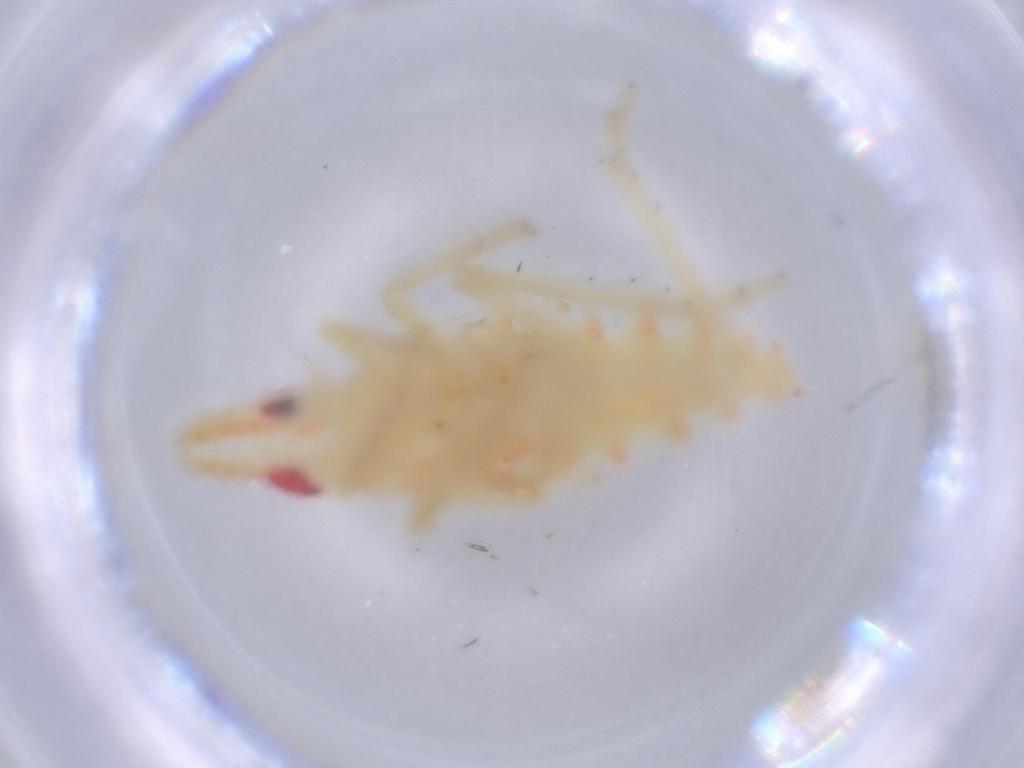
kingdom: Animalia
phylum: Arthropoda
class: Insecta
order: Hemiptera
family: Tropiduchidae
